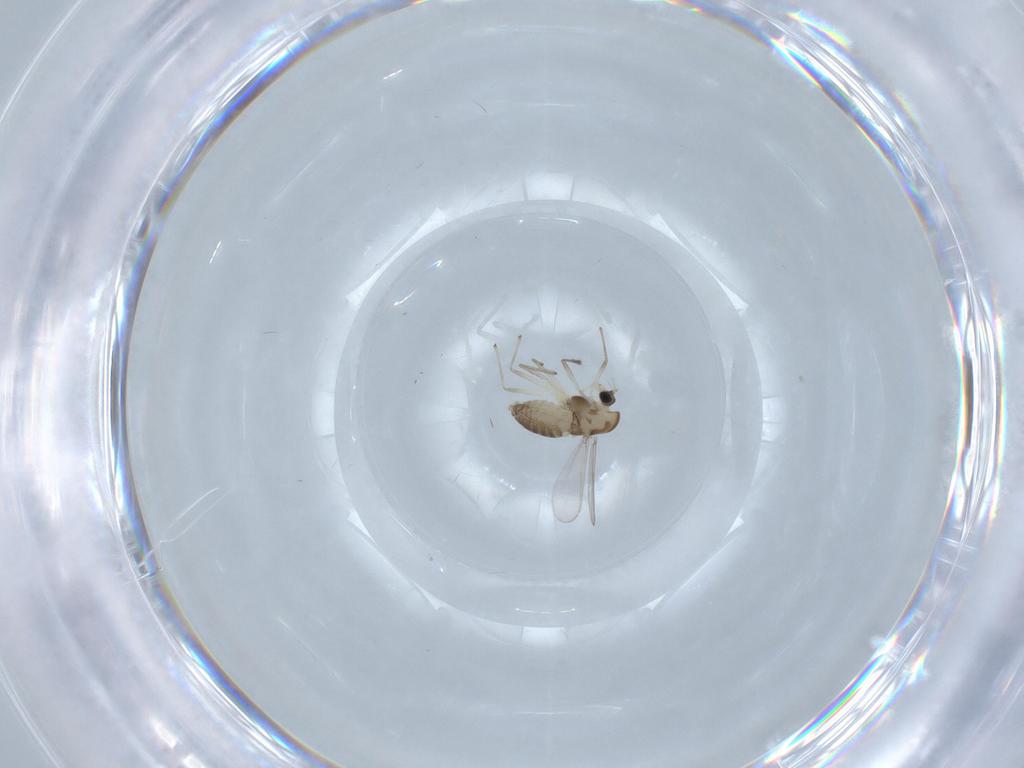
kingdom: Animalia
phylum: Arthropoda
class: Insecta
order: Diptera
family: Chironomidae
